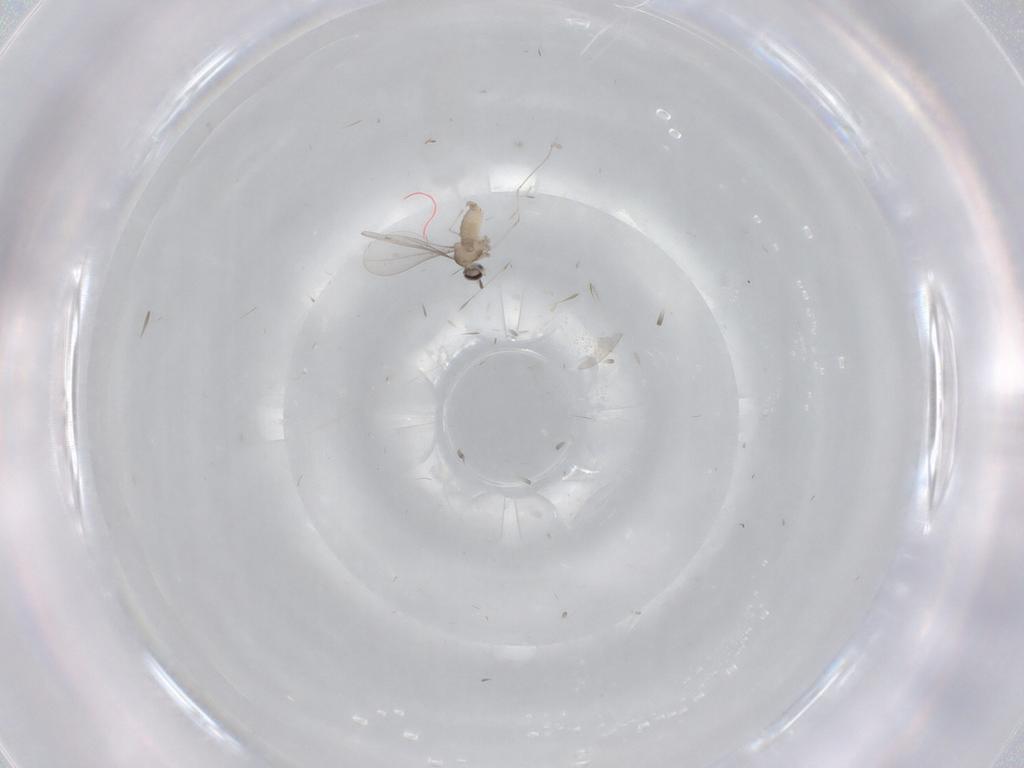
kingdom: Animalia
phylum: Arthropoda
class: Insecta
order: Diptera
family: Cecidomyiidae
